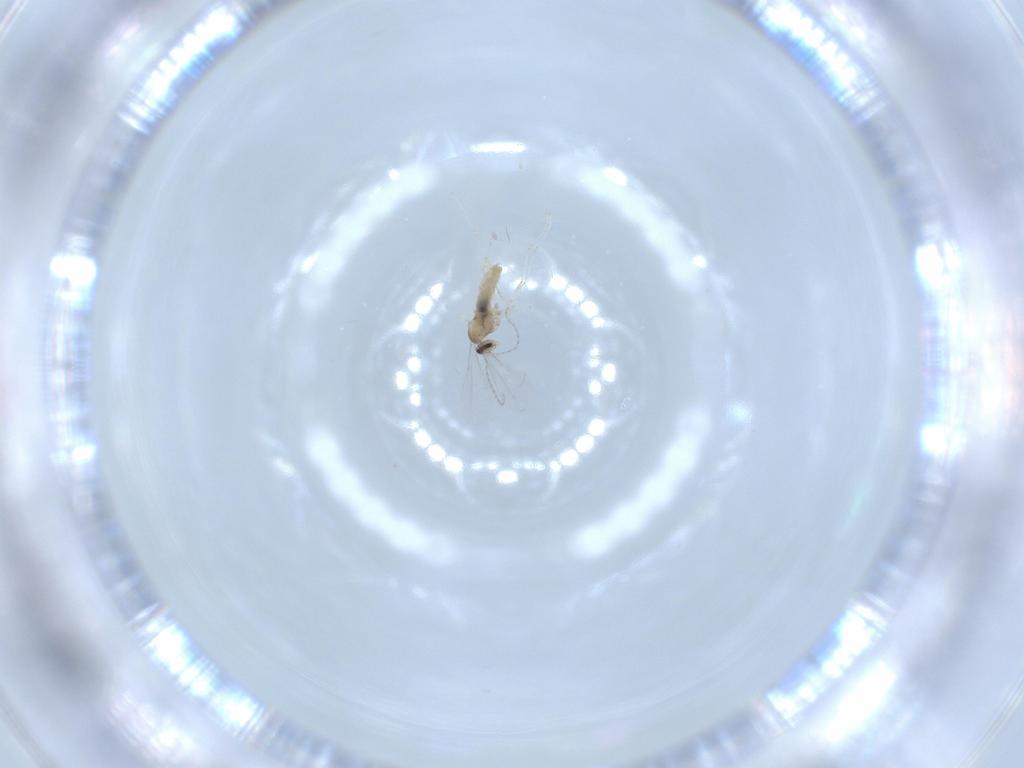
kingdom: Animalia
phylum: Arthropoda
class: Insecta
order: Diptera
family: Cecidomyiidae
